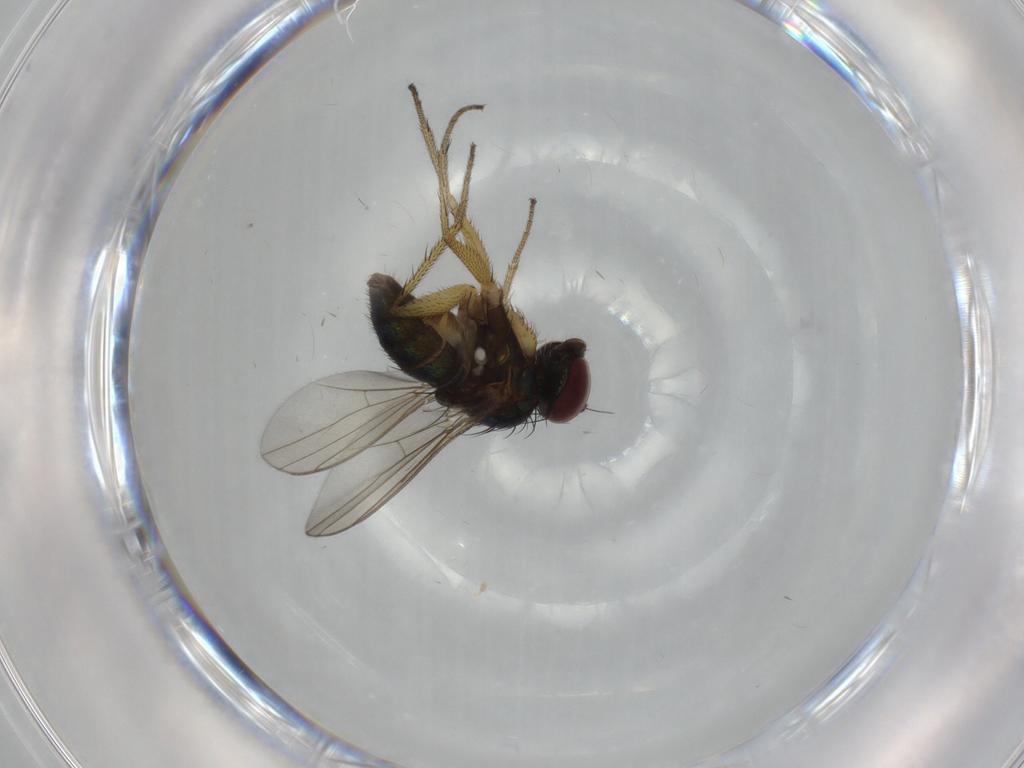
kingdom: Animalia
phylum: Arthropoda
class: Insecta
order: Diptera
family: Dolichopodidae
